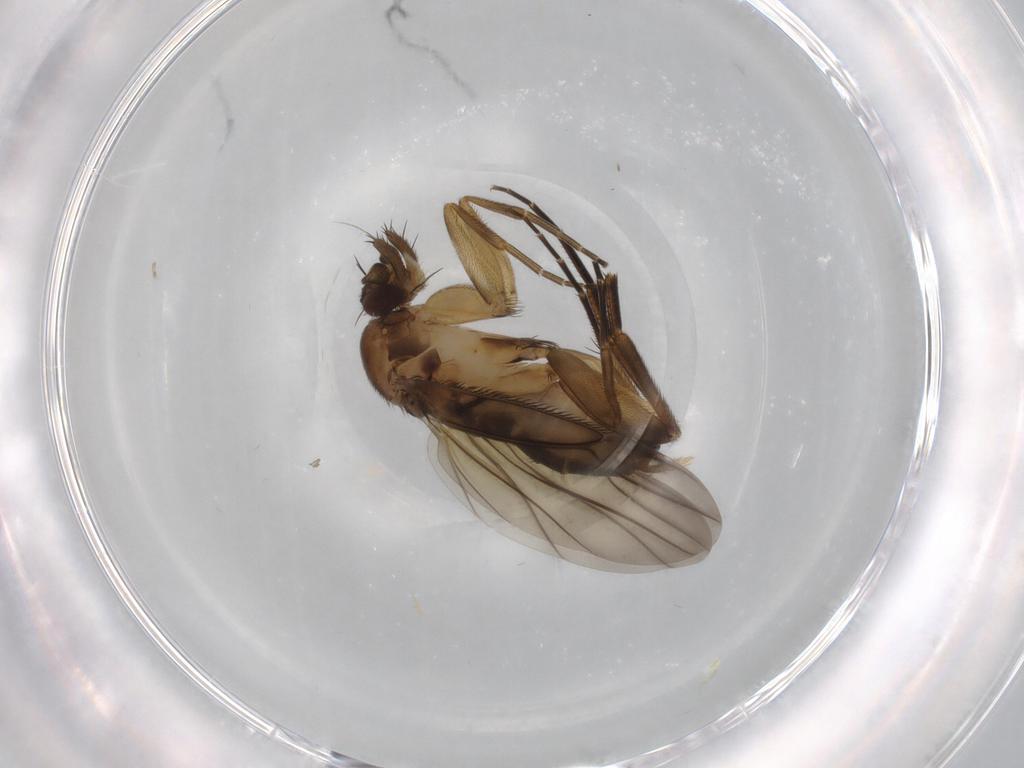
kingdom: Animalia
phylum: Arthropoda
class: Insecta
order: Diptera
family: Phoridae
